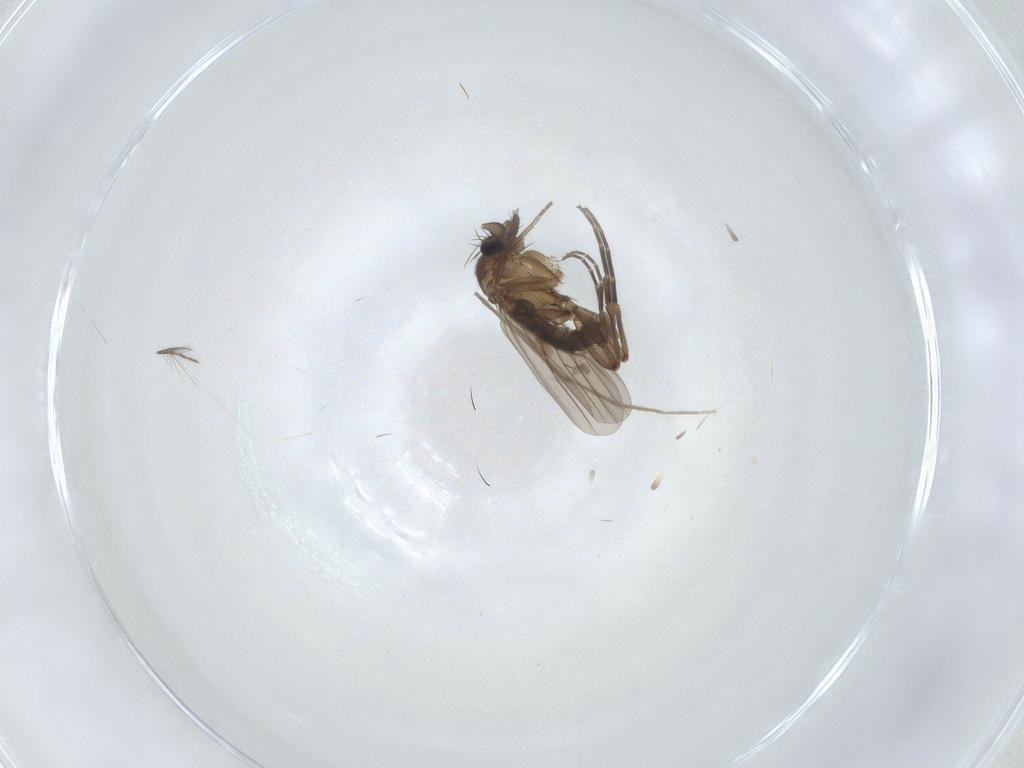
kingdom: Animalia
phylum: Arthropoda
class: Insecta
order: Diptera
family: Phoridae
